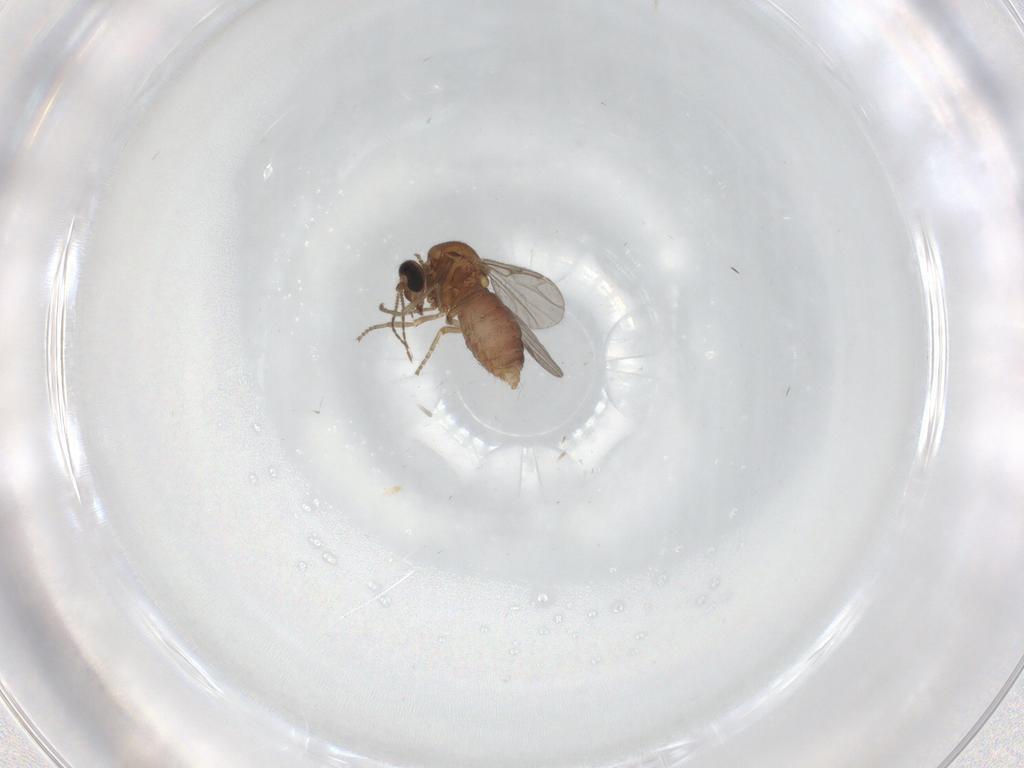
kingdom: Animalia
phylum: Arthropoda
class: Insecta
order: Diptera
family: Ceratopogonidae
